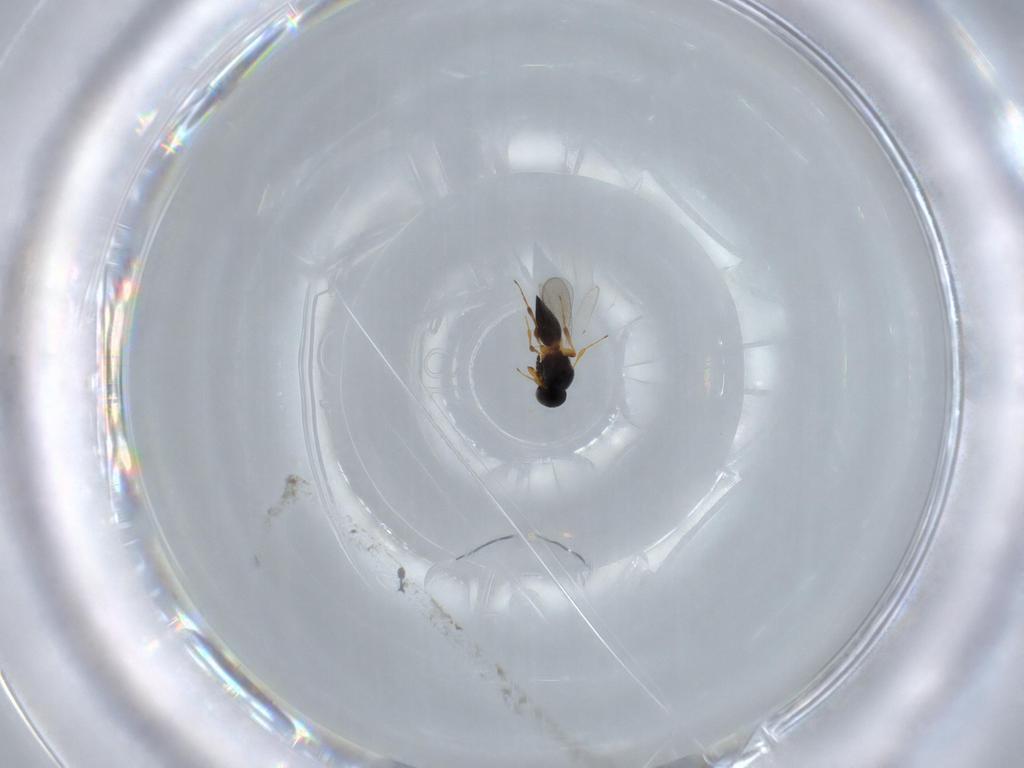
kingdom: Animalia
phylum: Arthropoda
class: Insecta
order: Hymenoptera
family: Platygastridae
